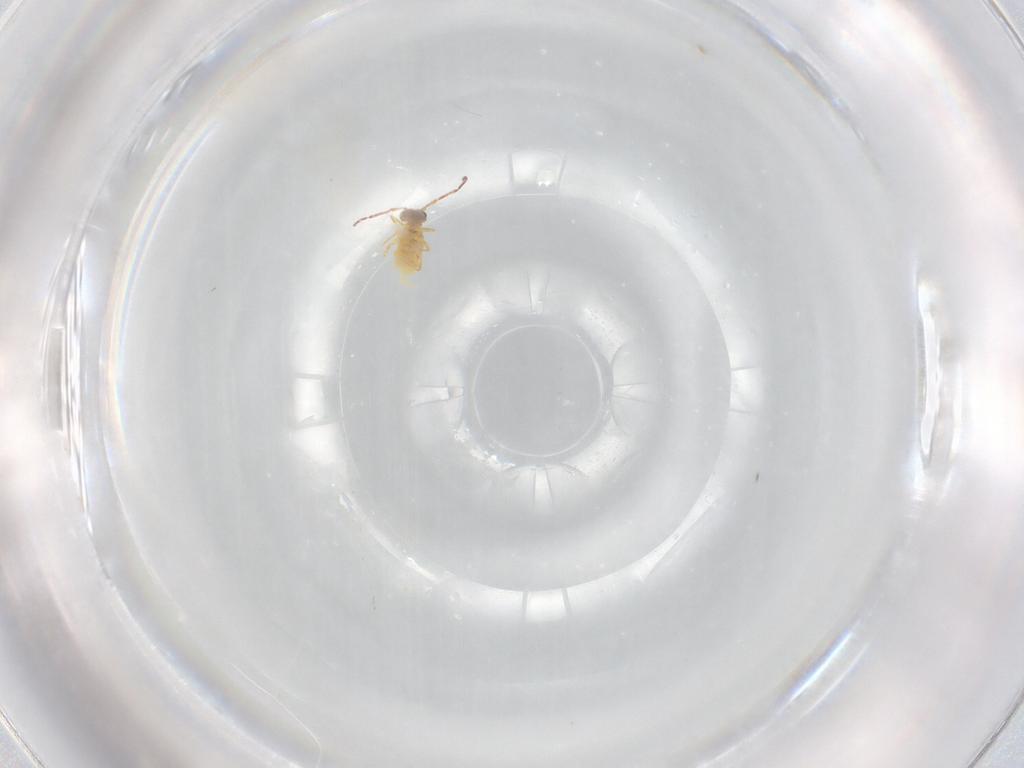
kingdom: Animalia
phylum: Arthropoda
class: Collembola
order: Symphypleona
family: Bourletiellidae
